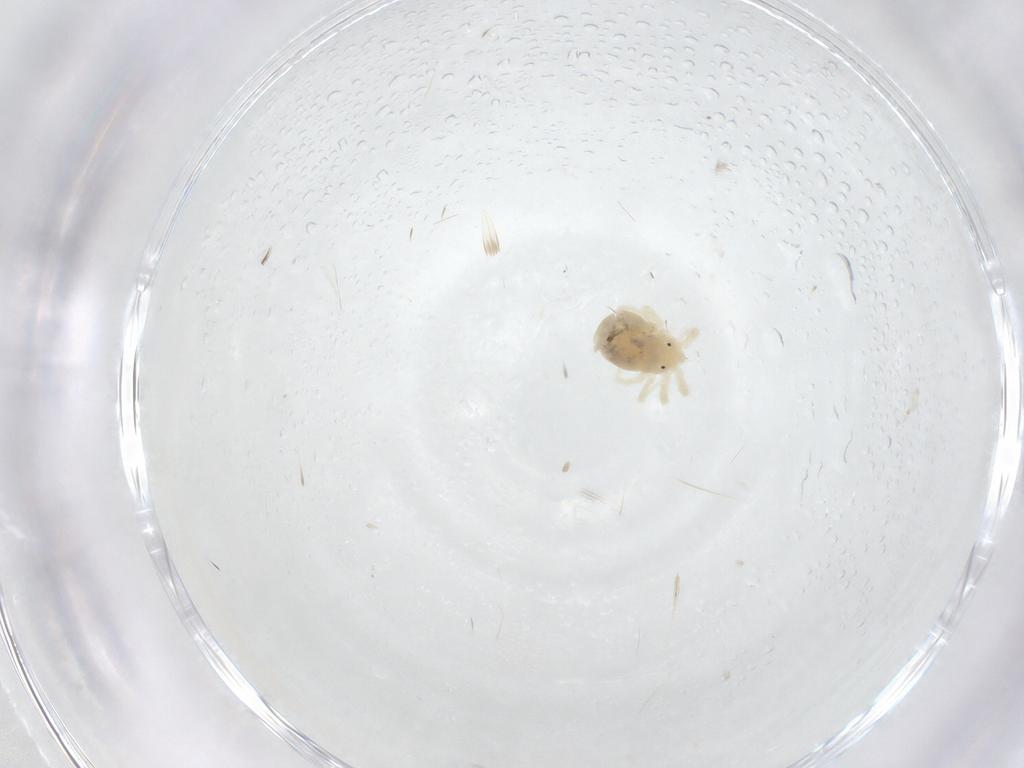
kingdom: Animalia
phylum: Arthropoda
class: Arachnida
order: Trombidiformes
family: Anystidae
